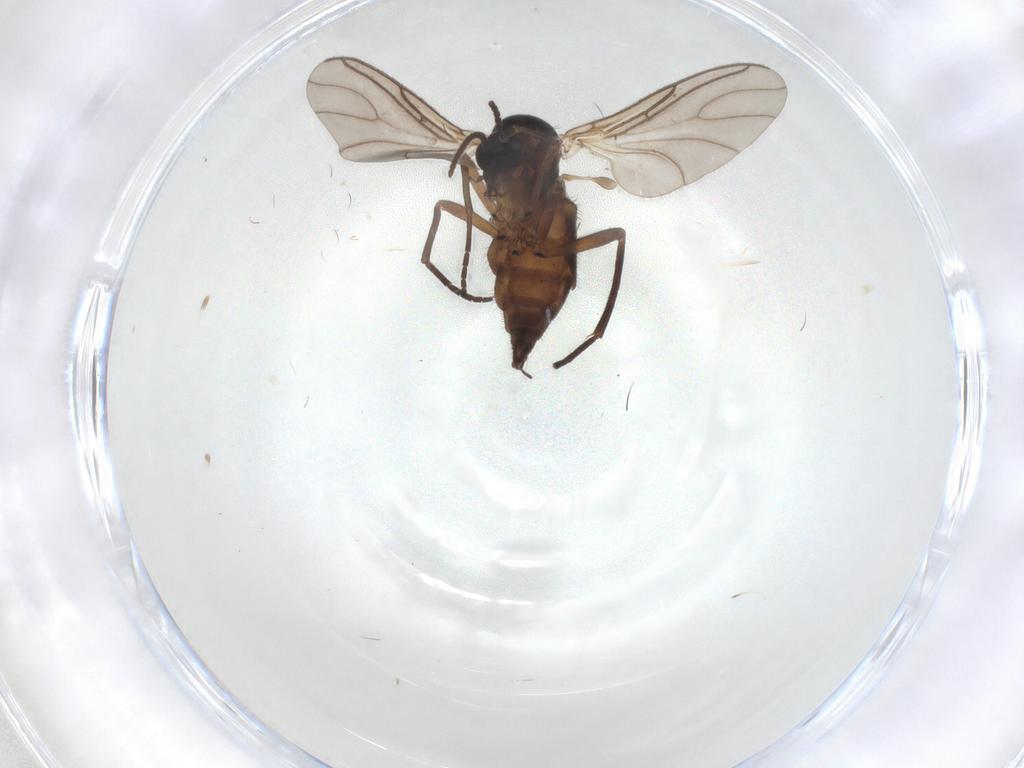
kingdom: Animalia
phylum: Arthropoda
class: Insecta
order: Diptera
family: Sciaridae
